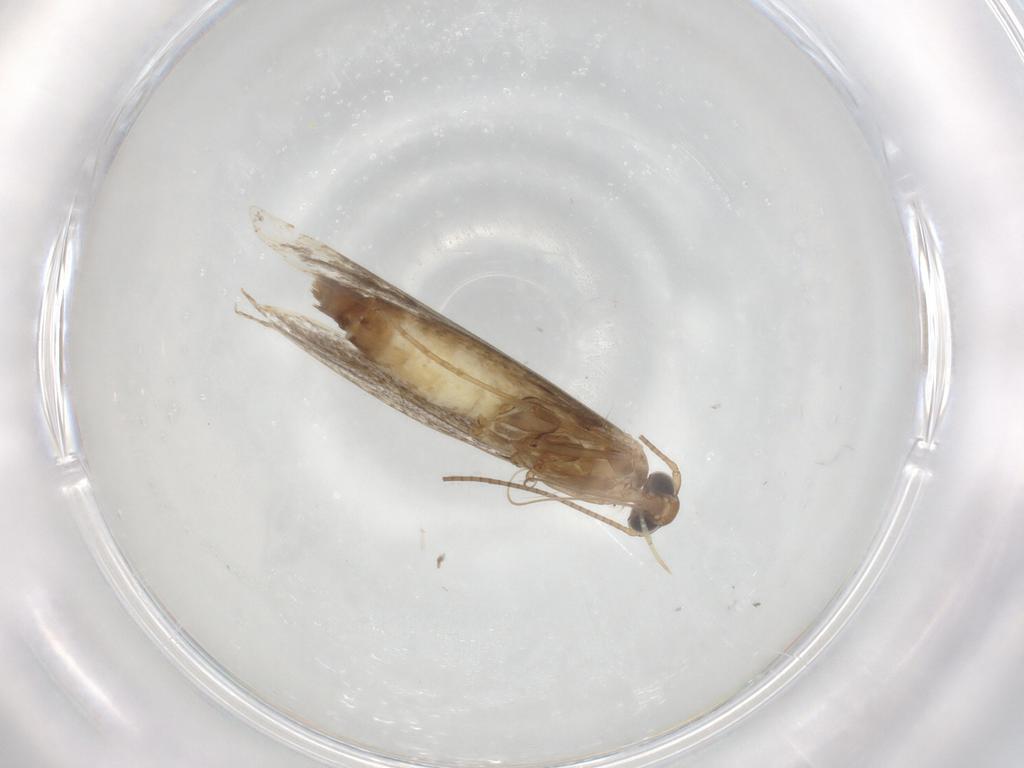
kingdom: Animalia
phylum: Arthropoda
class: Insecta
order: Lepidoptera
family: Gracillariidae
